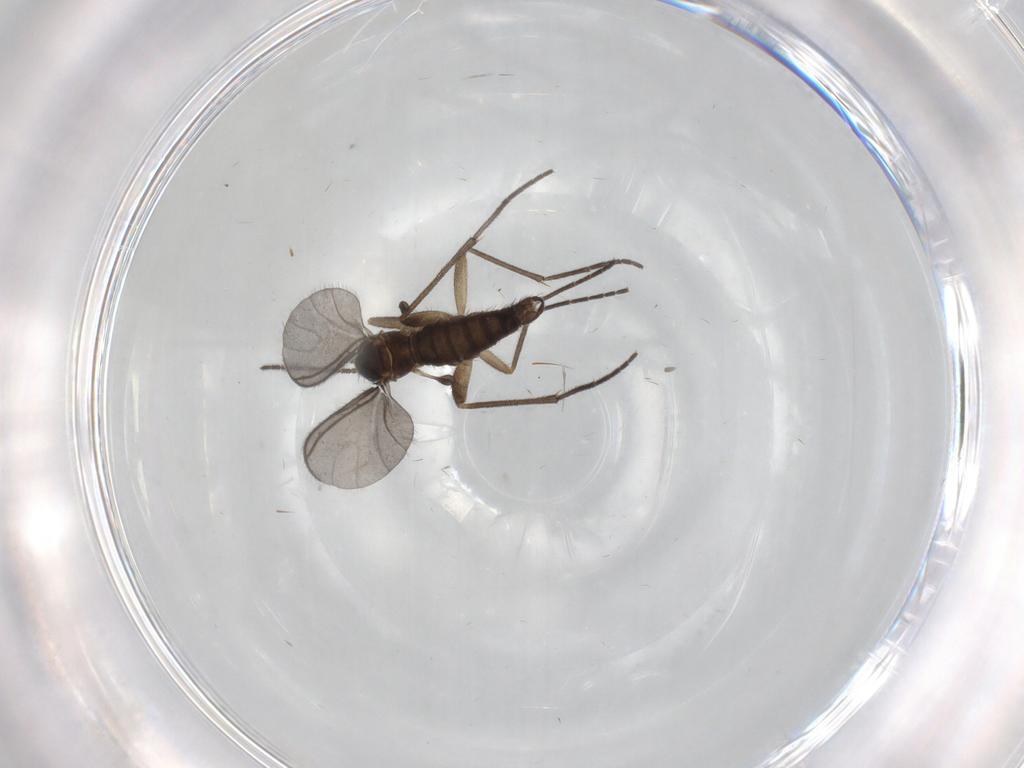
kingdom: Animalia
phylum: Arthropoda
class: Insecta
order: Diptera
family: Sciaridae
